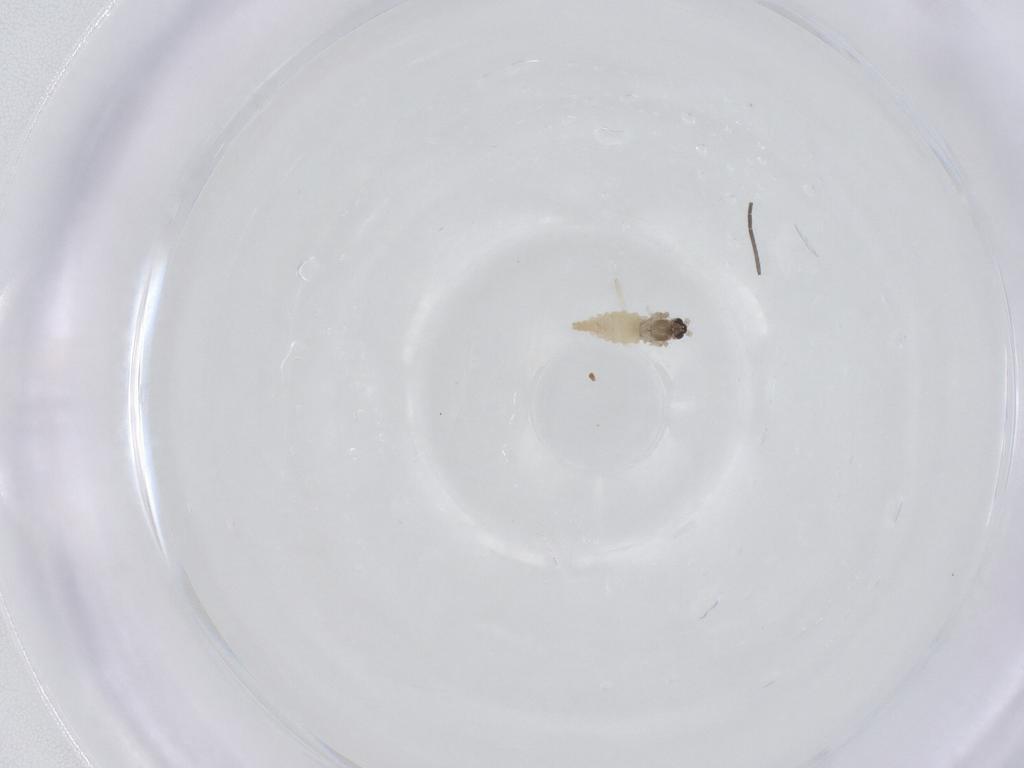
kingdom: Animalia
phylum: Arthropoda
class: Insecta
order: Diptera
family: Cecidomyiidae
